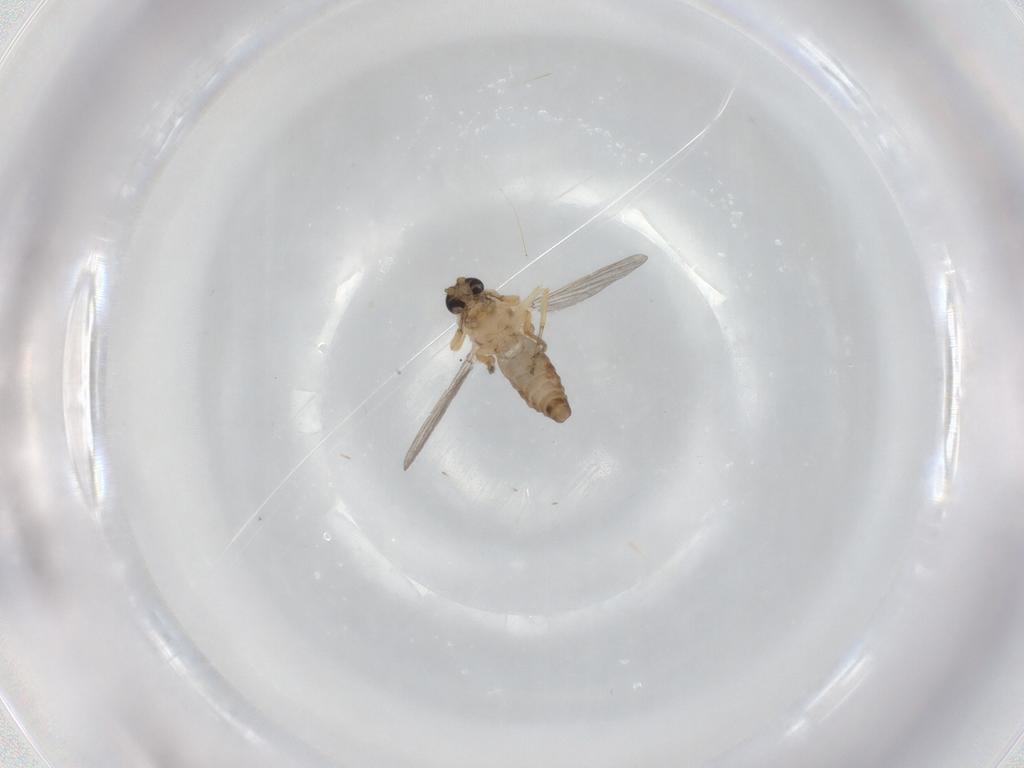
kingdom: Animalia
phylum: Arthropoda
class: Insecta
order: Diptera
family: Ceratopogonidae
